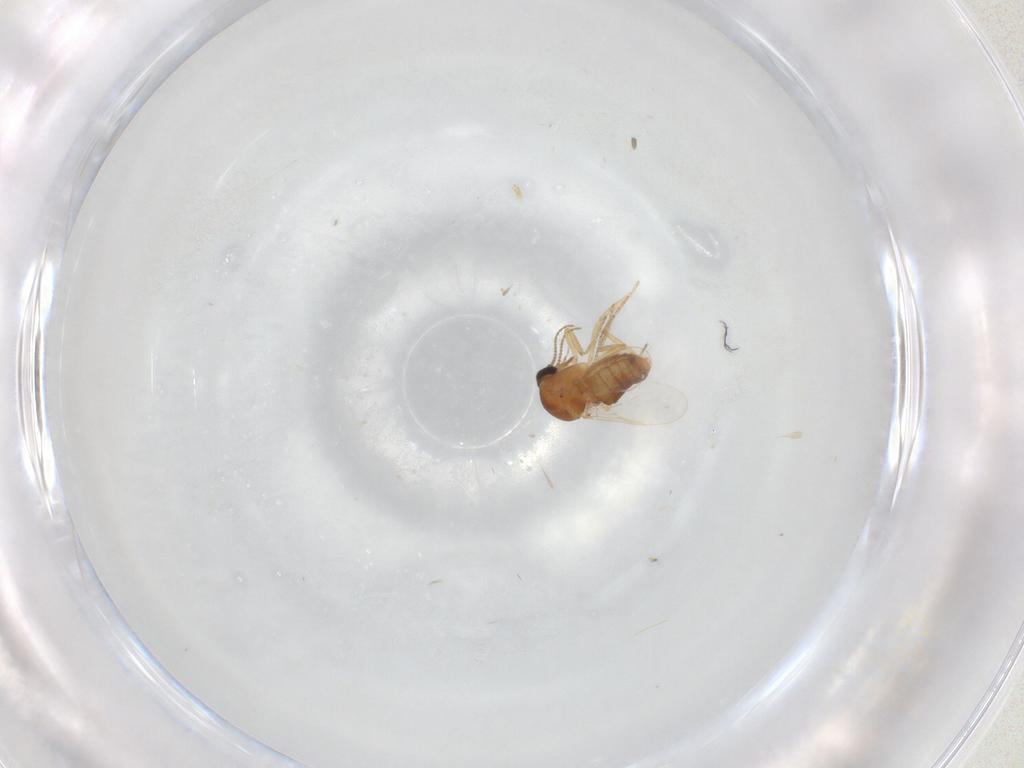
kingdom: Animalia
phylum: Arthropoda
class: Insecta
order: Diptera
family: Ceratopogonidae
